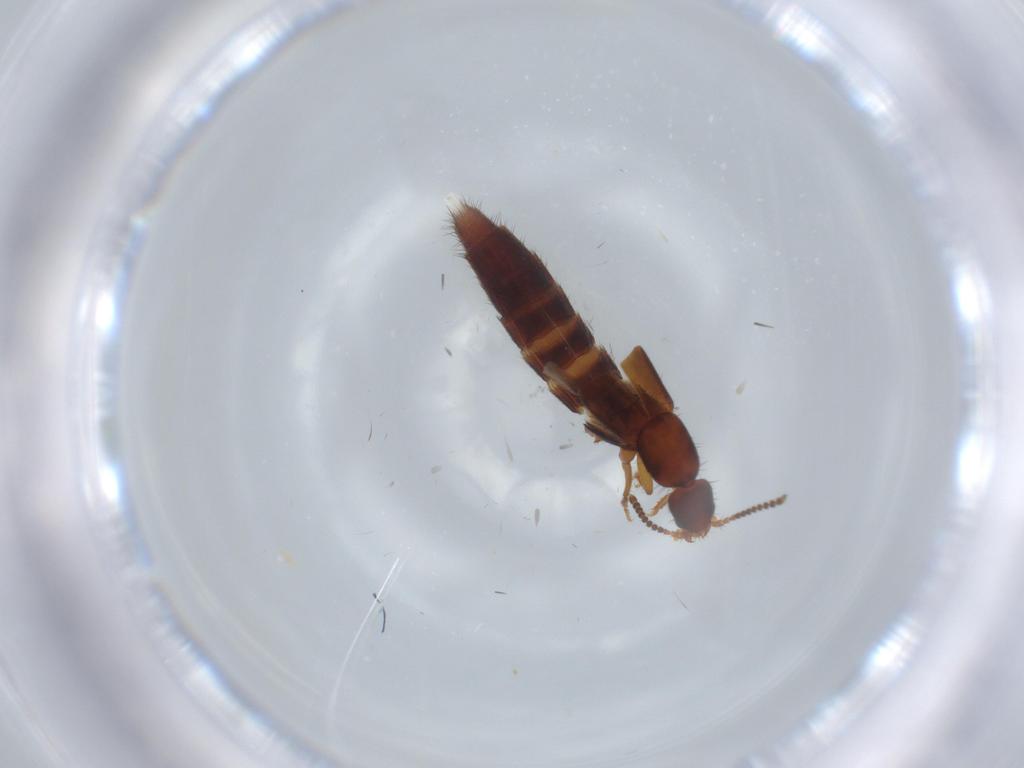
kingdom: Animalia
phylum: Arthropoda
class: Insecta
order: Coleoptera
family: Staphylinidae
